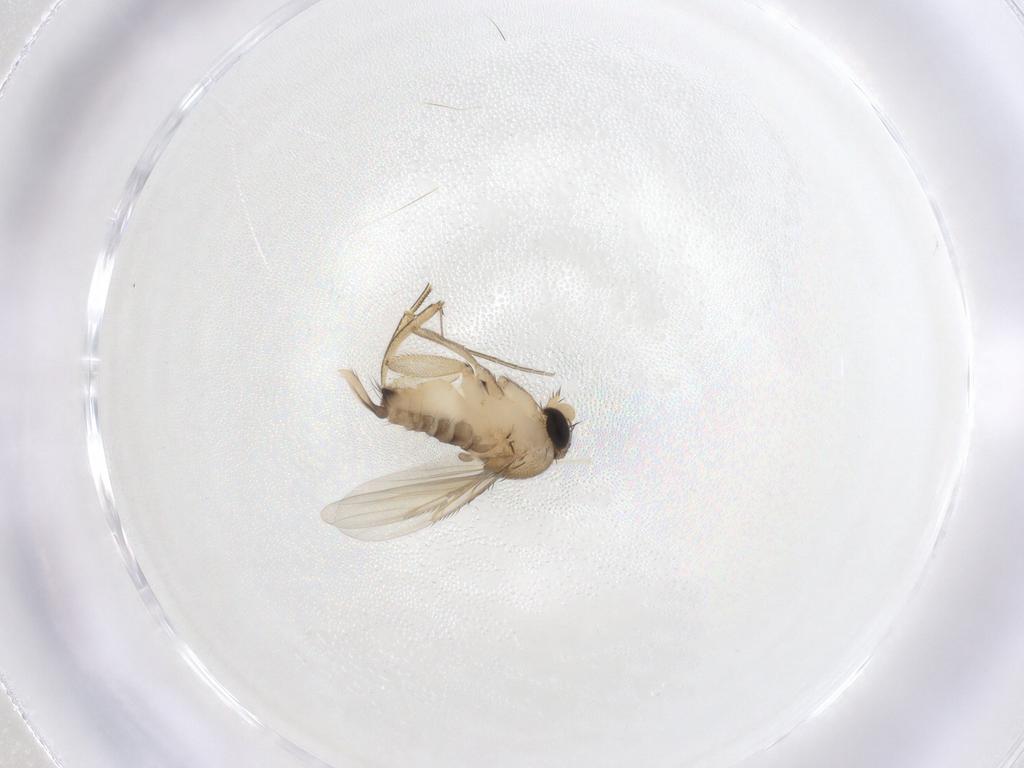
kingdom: Animalia
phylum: Arthropoda
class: Insecta
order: Diptera
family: Cecidomyiidae
